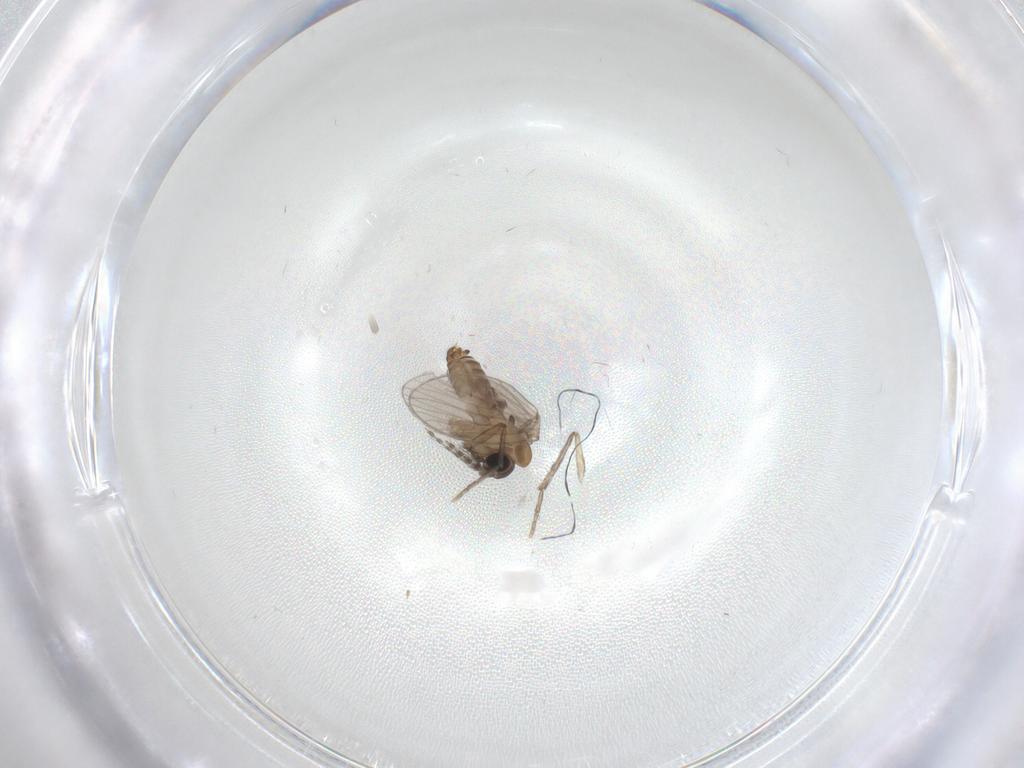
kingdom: Animalia
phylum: Arthropoda
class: Insecta
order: Diptera
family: Psychodidae
